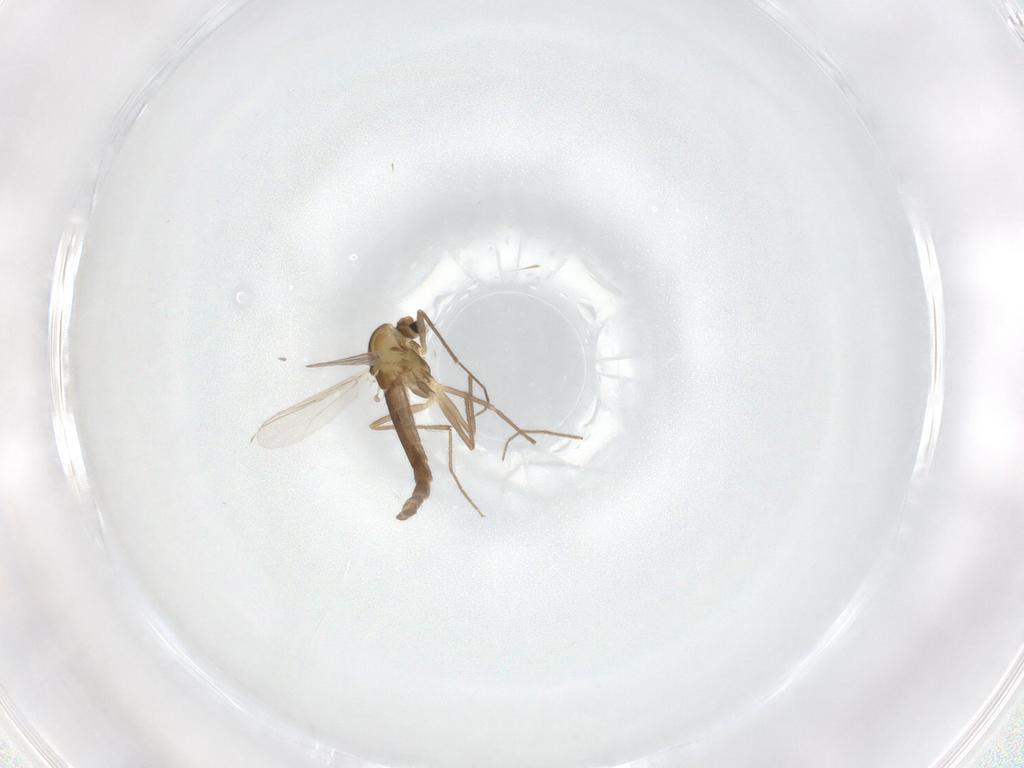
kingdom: Animalia
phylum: Arthropoda
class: Insecta
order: Diptera
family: Chironomidae
